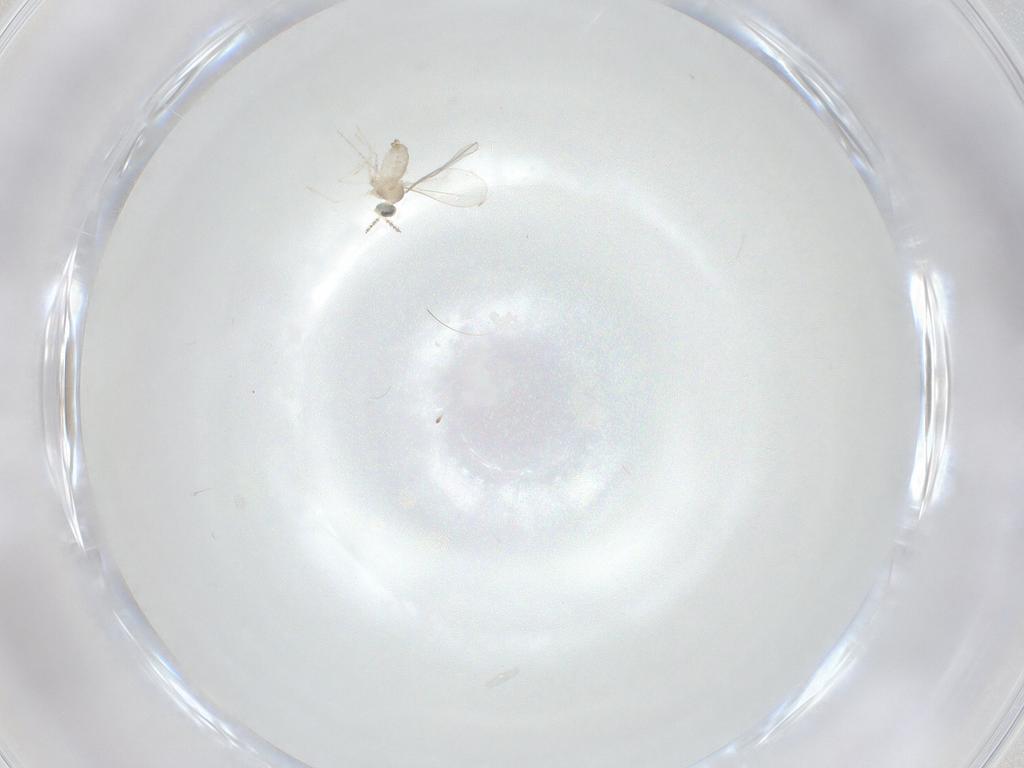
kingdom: Animalia
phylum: Arthropoda
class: Insecta
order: Diptera
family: Cecidomyiidae
